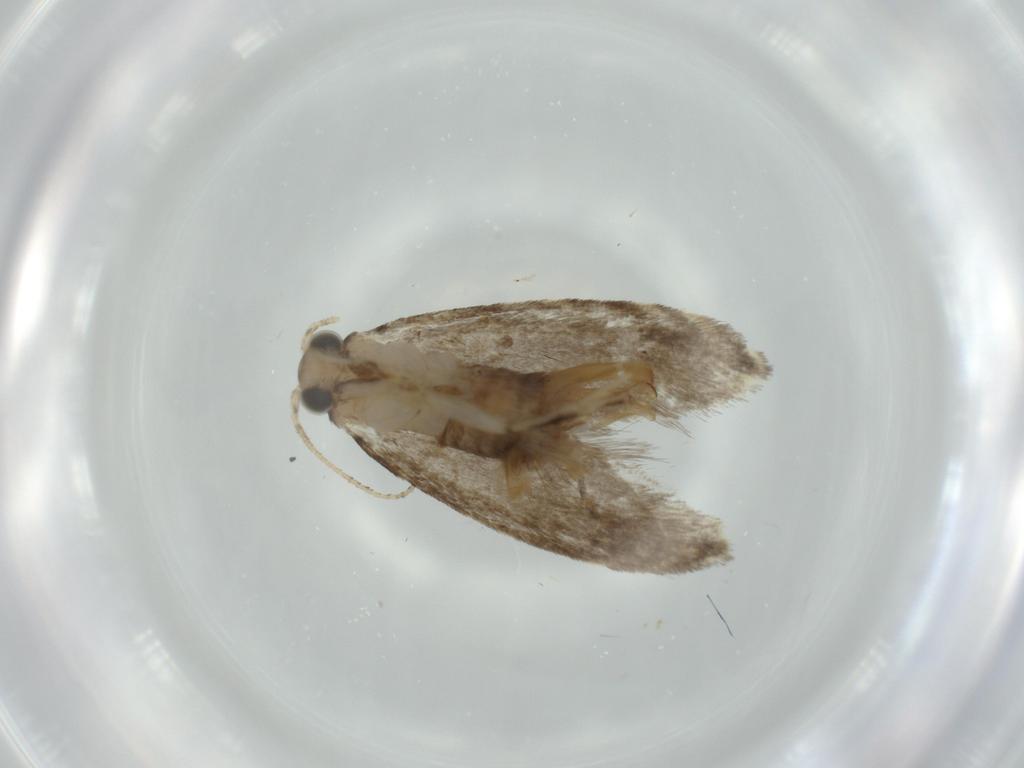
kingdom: Animalia
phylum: Arthropoda
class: Insecta
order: Lepidoptera
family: Tineidae
